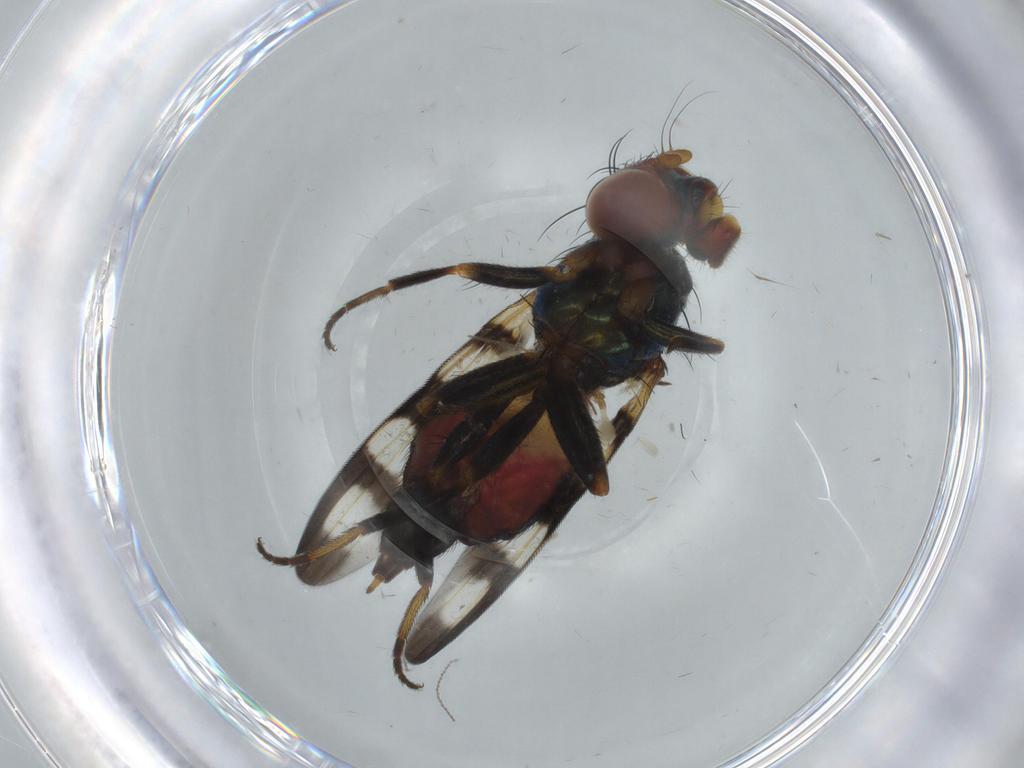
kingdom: Animalia
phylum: Arthropoda
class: Insecta
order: Diptera
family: Ulidiidae
